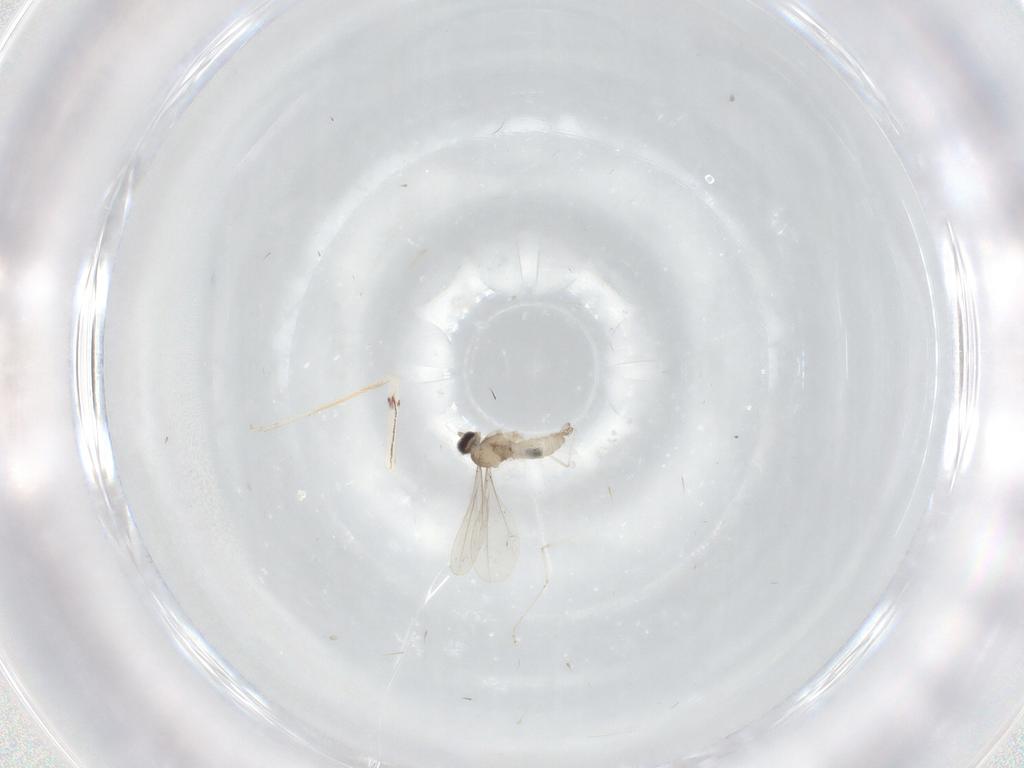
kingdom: Animalia
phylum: Arthropoda
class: Insecta
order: Diptera
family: Cecidomyiidae
